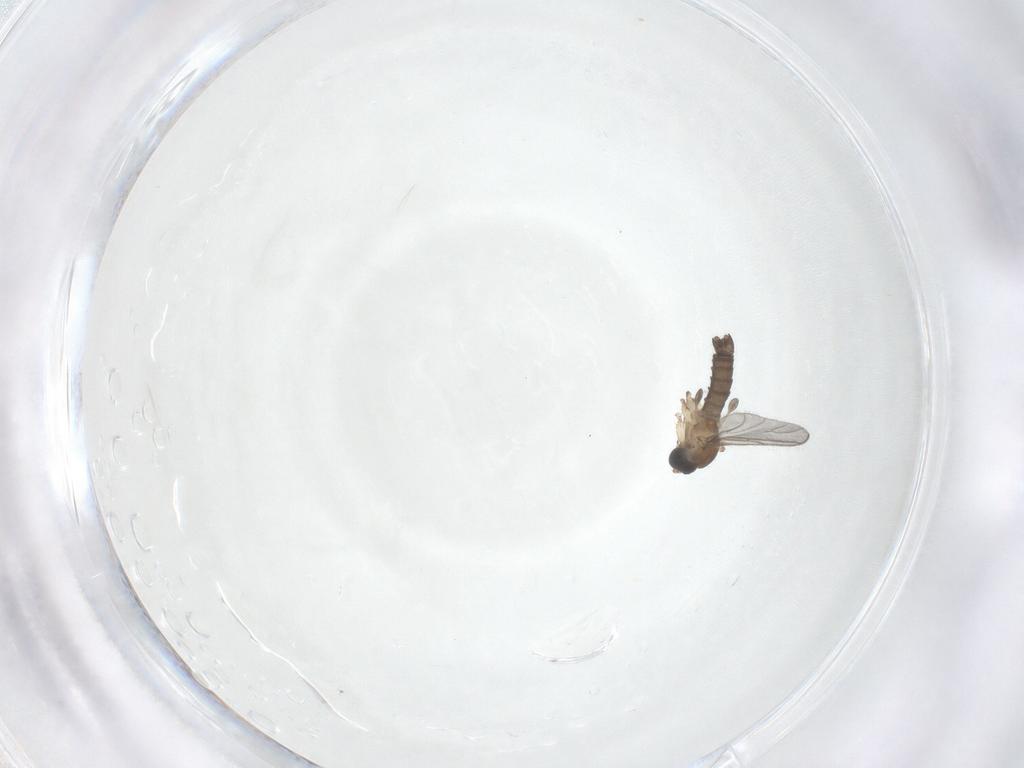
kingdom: Animalia
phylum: Arthropoda
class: Insecta
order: Diptera
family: Sciaridae
